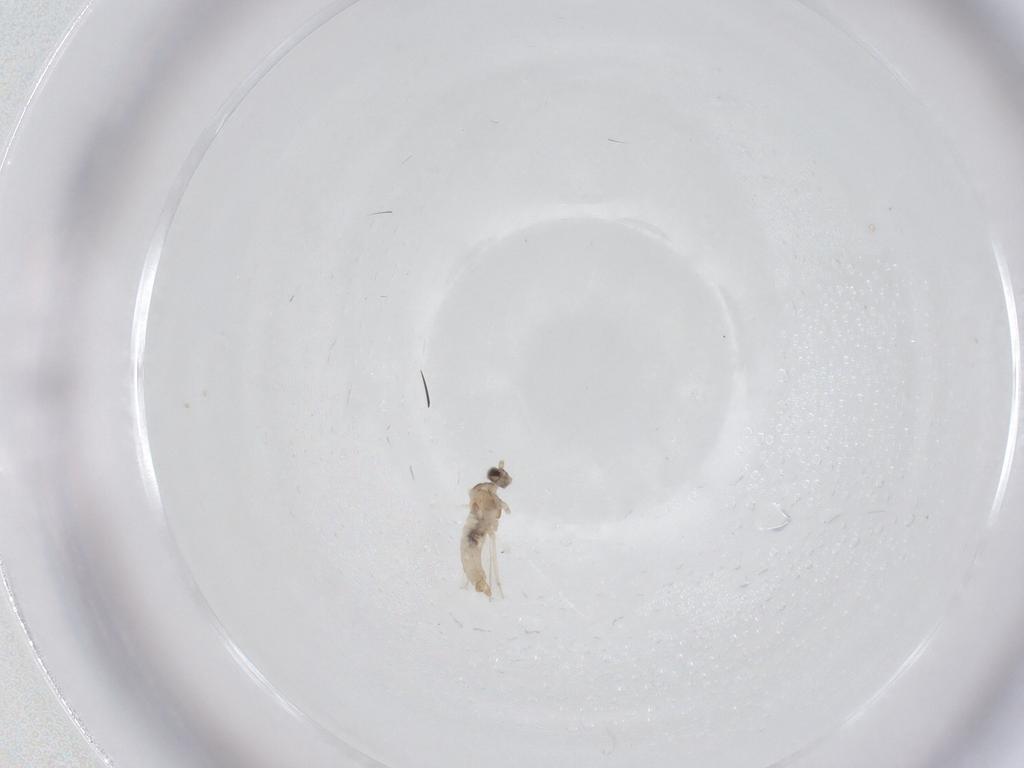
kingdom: Animalia
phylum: Arthropoda
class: Insecta
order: Diptera
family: Cecidomyiidae
